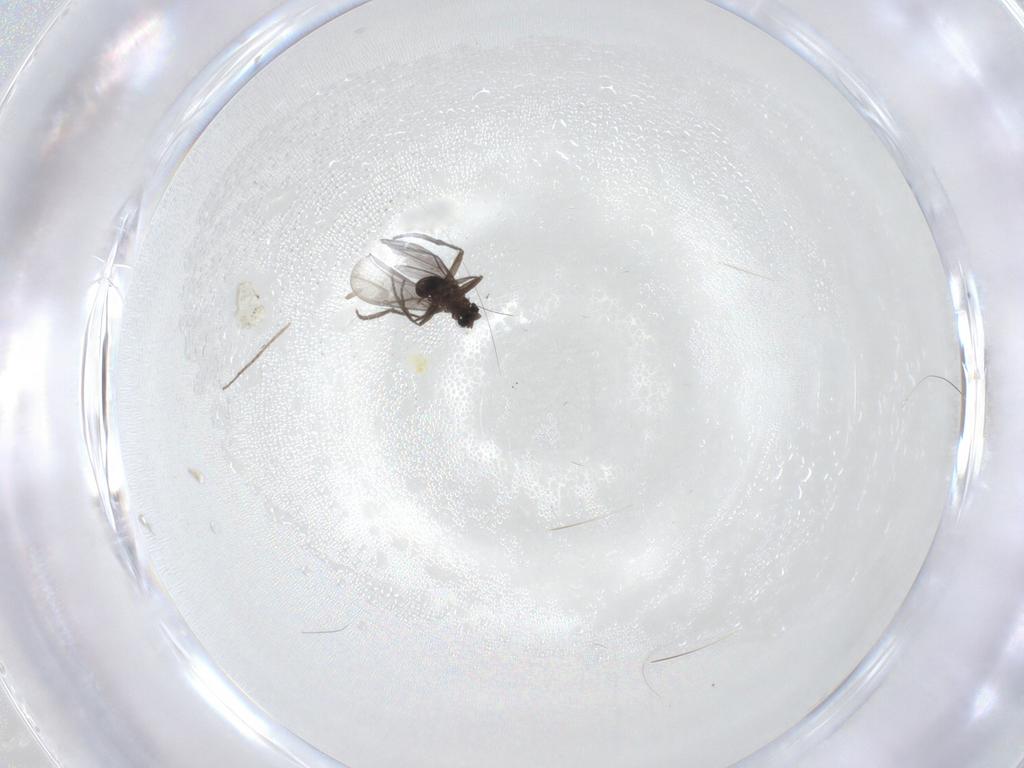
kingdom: Animalia
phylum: Arthropoda
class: Insecta
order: Diptera
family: Cecidomyiidae
